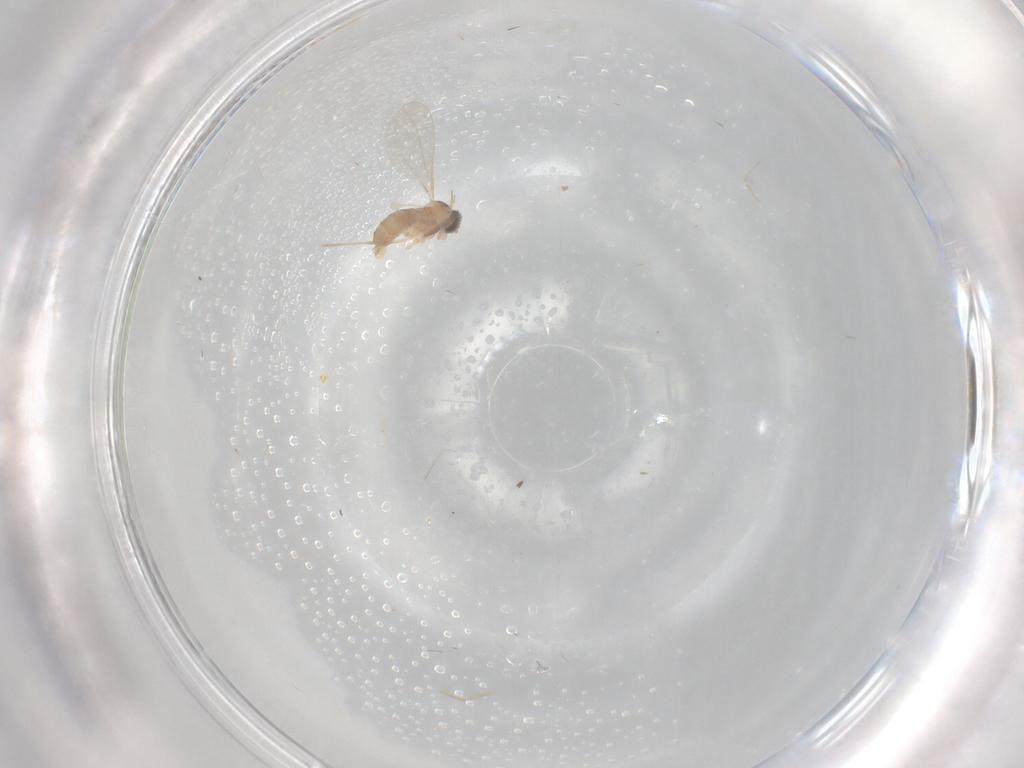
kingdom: Animalia
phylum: Arthropoda
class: Insecta
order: Diptera
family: Cecidomyiidae
